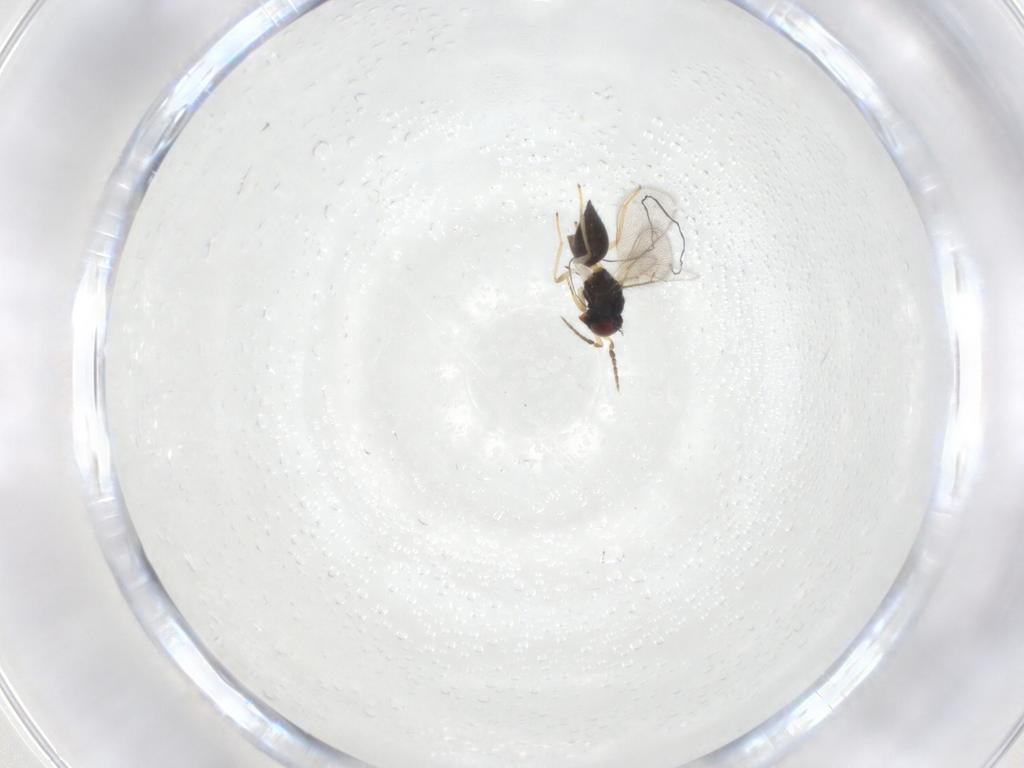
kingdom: Animalia
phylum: Arthropoda
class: Insecta
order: Hymenoptera
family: Eulophidae
